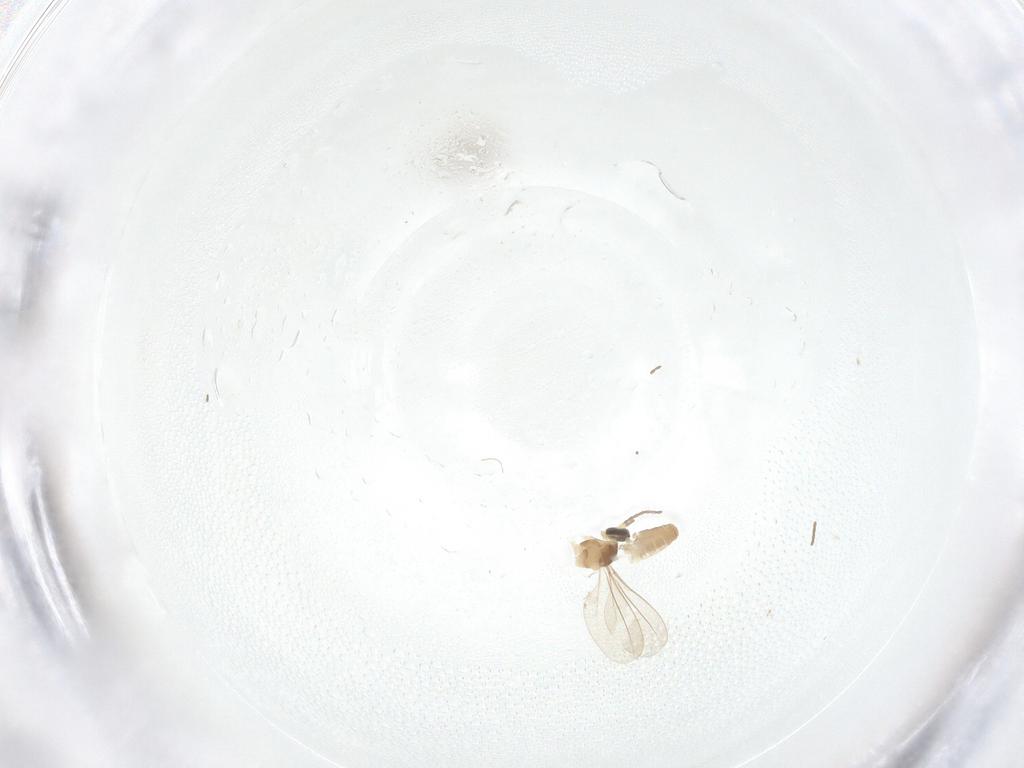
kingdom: Animalia
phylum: Arthropoda
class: Insecta
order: Diptera
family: Cecidomyiidae
